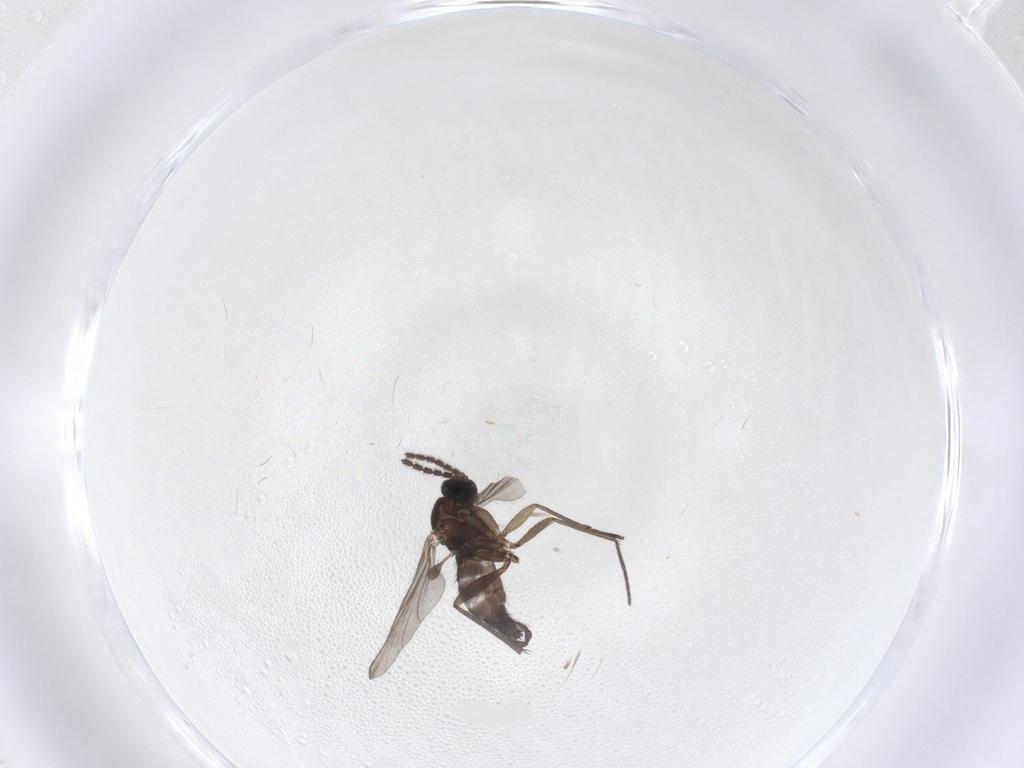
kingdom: Animalia
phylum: Arthropoda
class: Insecta
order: Diptera
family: Sciaridae
